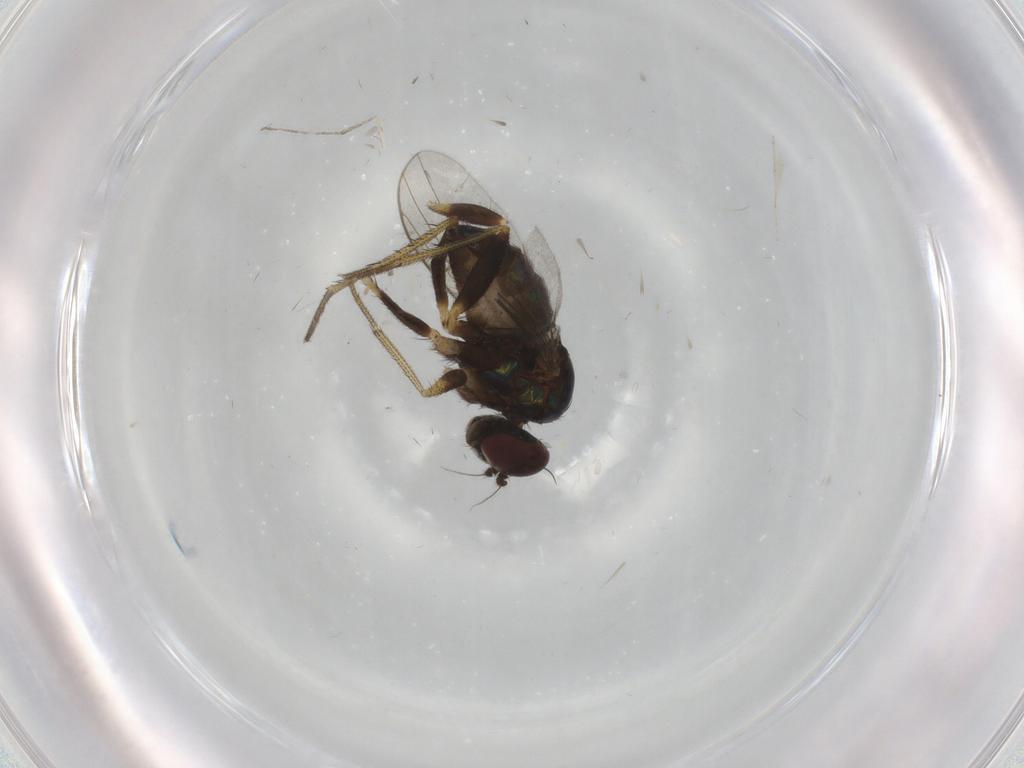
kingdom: Animalia
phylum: Arthropoda
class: Insecta
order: Diptera
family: Dolichopodidae
